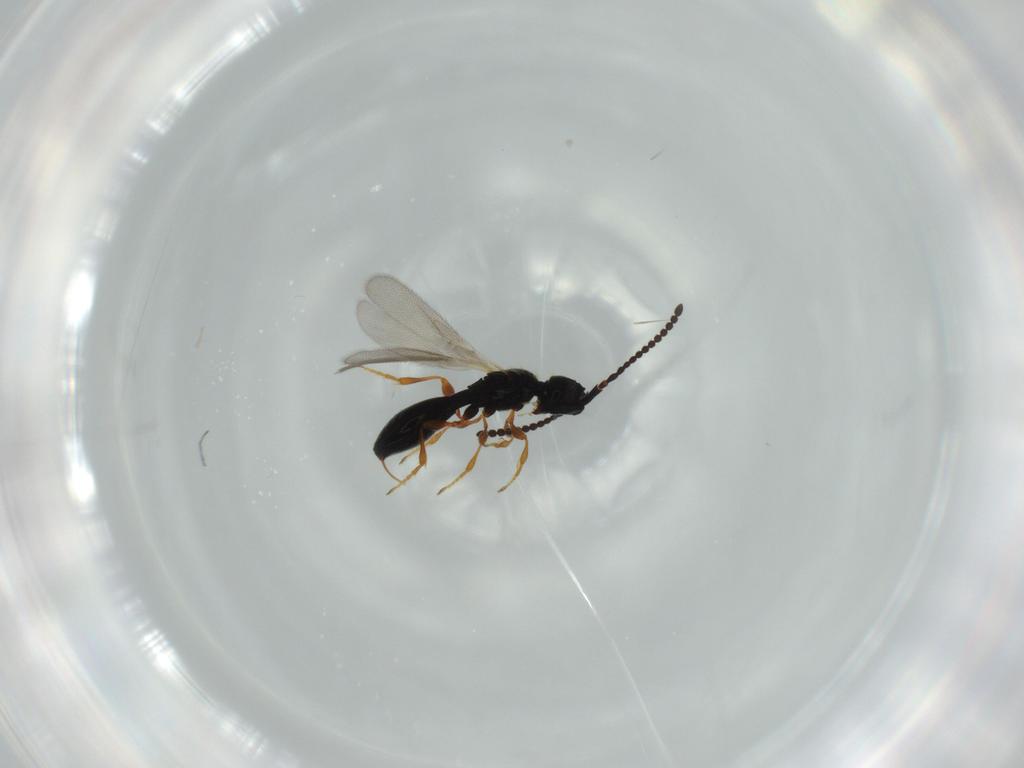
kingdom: Animalia
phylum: Arthropoda
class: Insecta
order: Hymenoptera
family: Diapriidae
